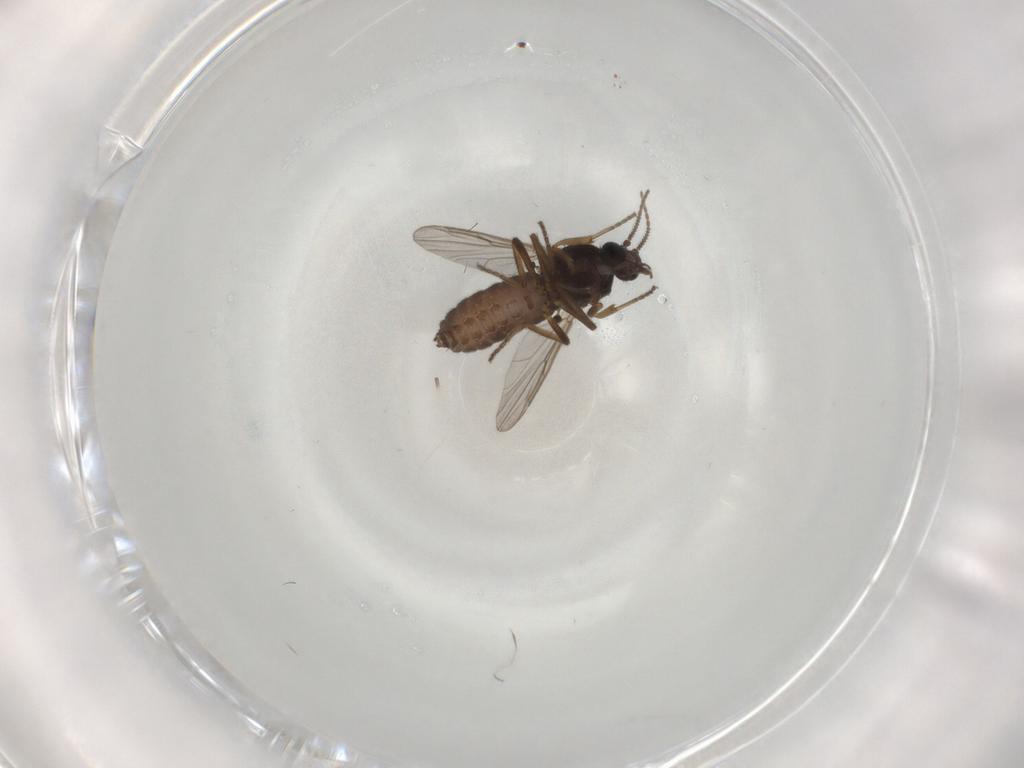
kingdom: Animalia
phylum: Arthropoda
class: Insecta
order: Diptera
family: Ceratopogonidae
